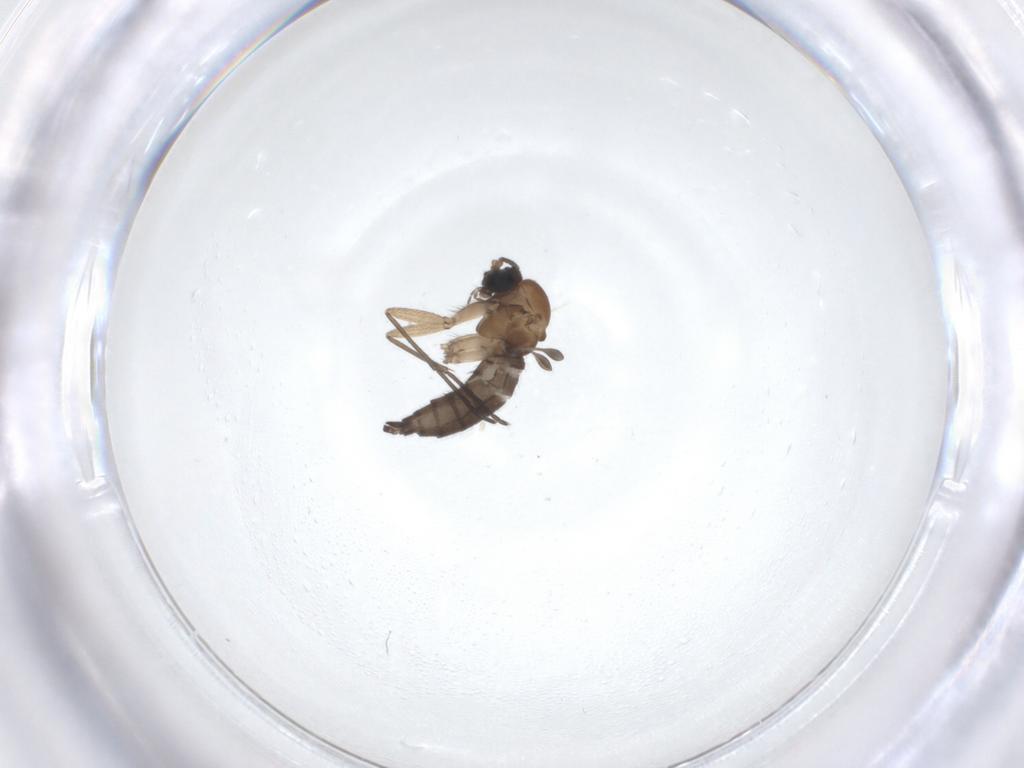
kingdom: Animalia
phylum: Arthropoda
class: Insecta
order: Diptera
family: Sciaridae
